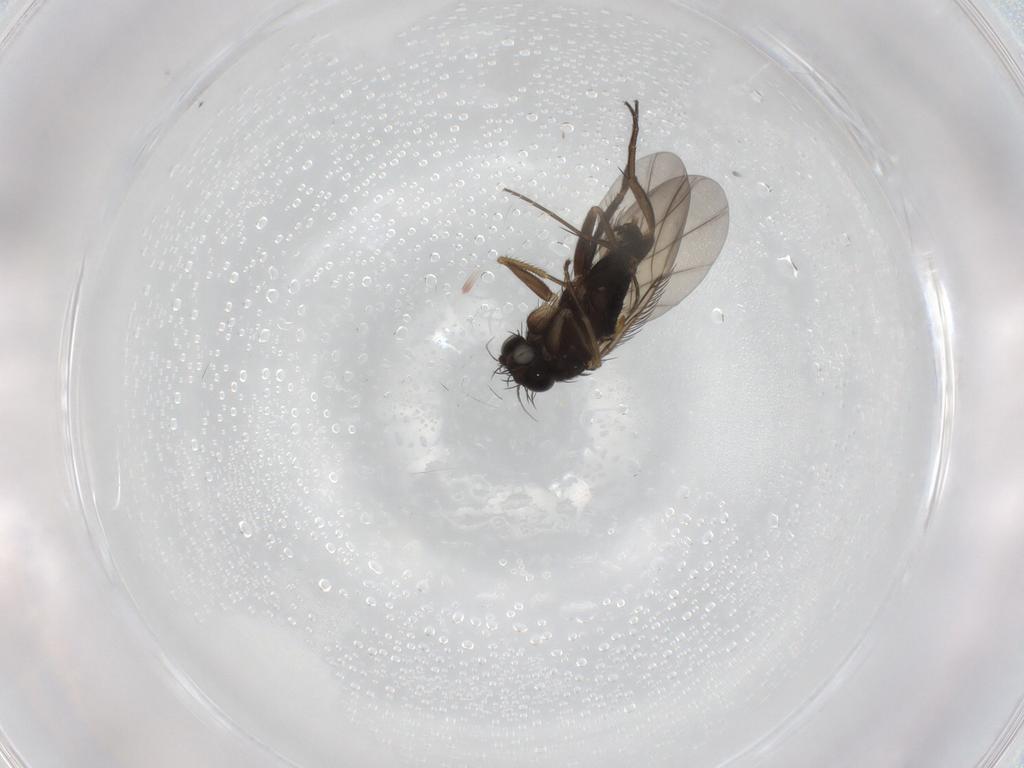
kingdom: Animalia
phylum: Arthropoda
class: Insecta
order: Diptera
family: Phoridae
